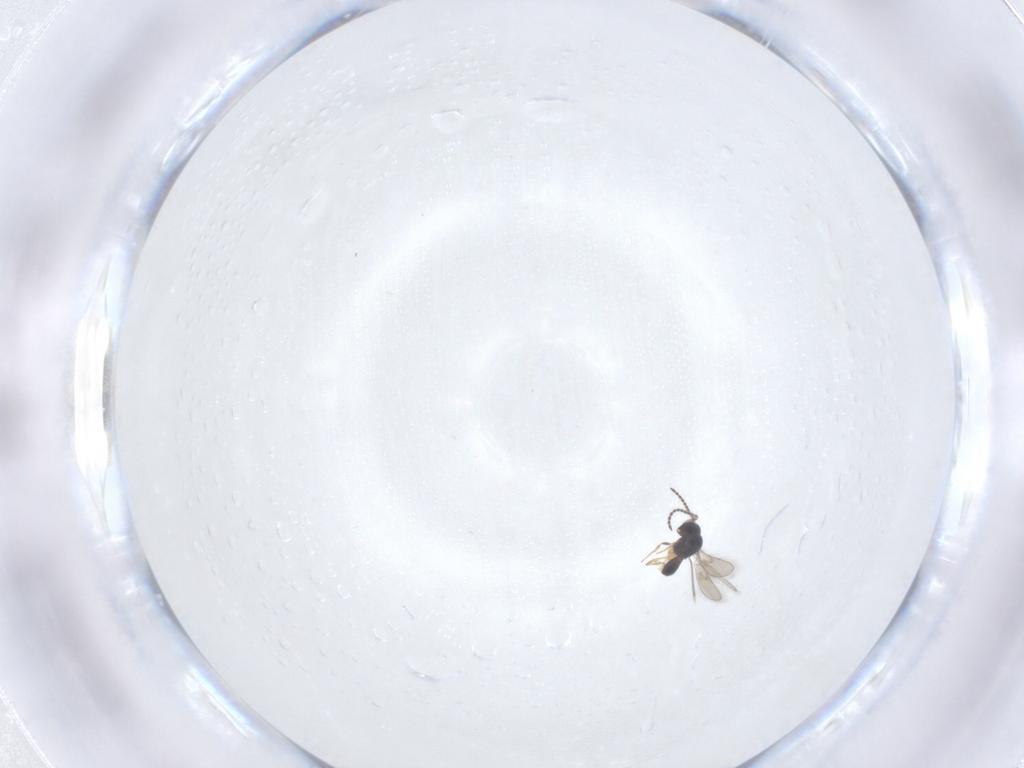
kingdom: Animalia
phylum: Arthropoda
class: Insecta
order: Hymenoptera
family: Scelionidae
